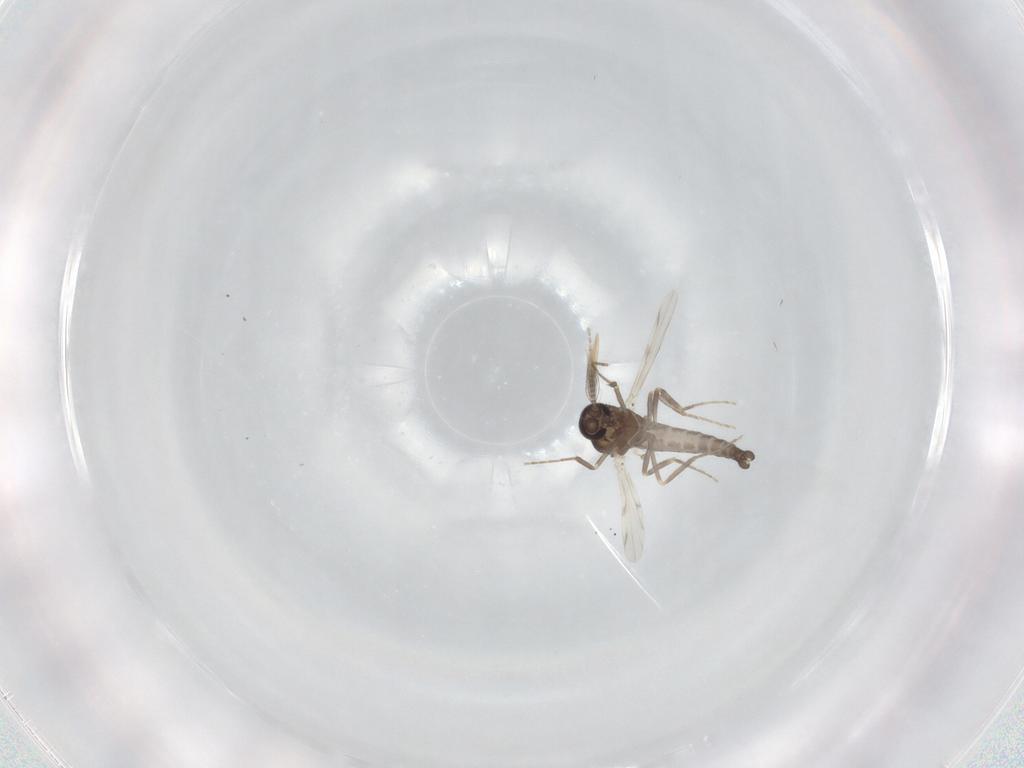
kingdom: Animalia
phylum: Arthropoda
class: Insecta
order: Diptera
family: Ceratopogonidae
